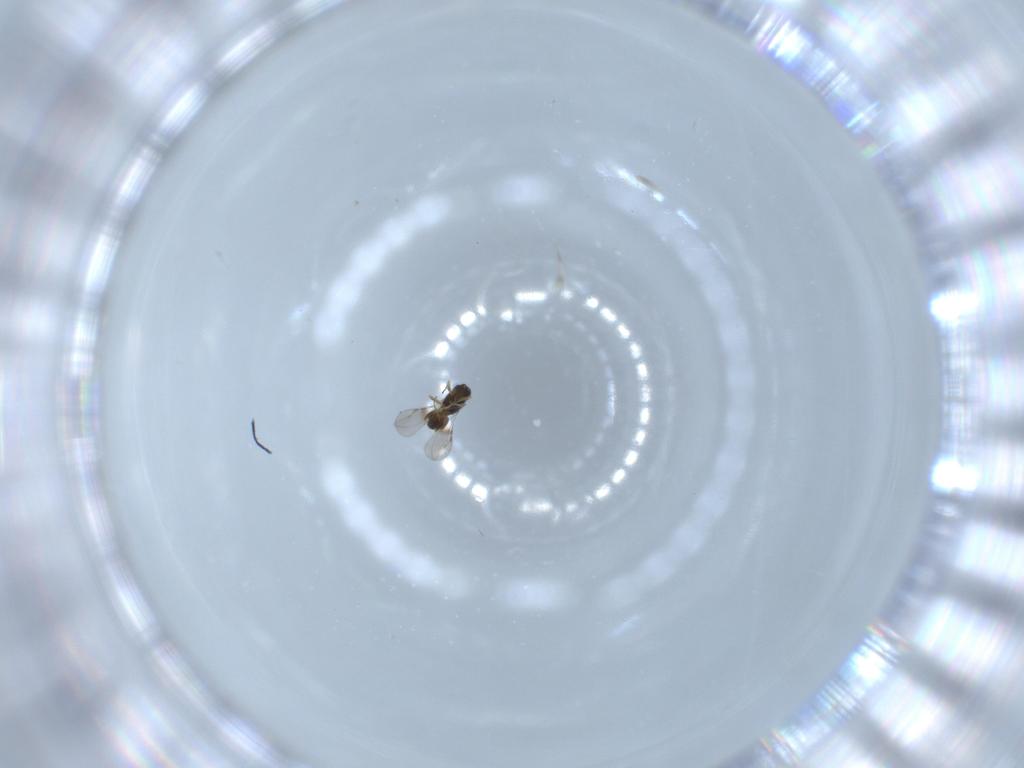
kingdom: Animalia
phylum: Arthropoda
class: Insecta
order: Hymenoptera
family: Ceraphronidae
